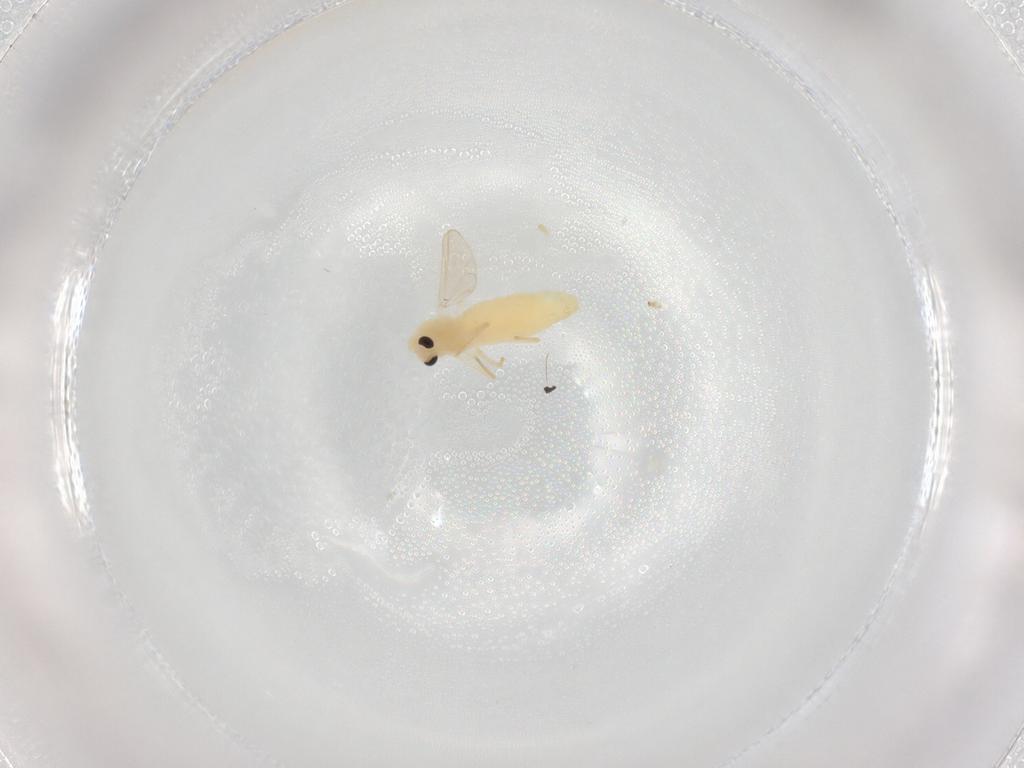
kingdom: Animalia
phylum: Arthropoda
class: Insecta
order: Diptera
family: Chironomidae
